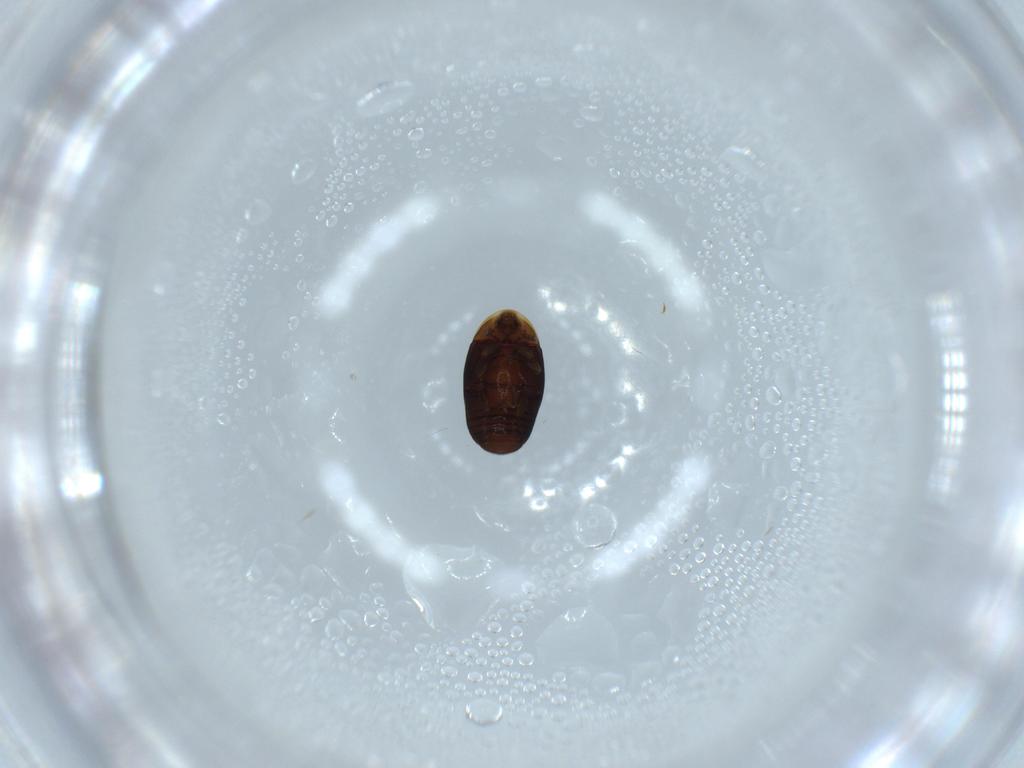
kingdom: Animalia
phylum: Arthropoda
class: Insecta
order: Coleoptera
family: Corylophidae
